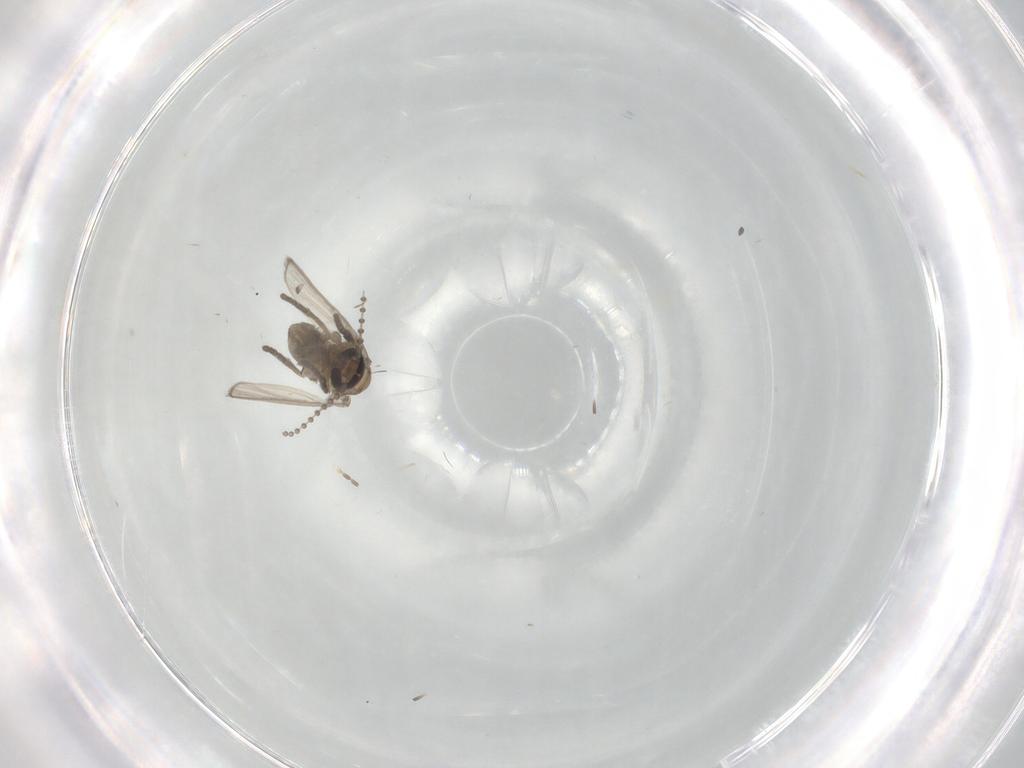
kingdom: Animalia
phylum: Arthropoda
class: Insecta
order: Diptera
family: Psychodidae
